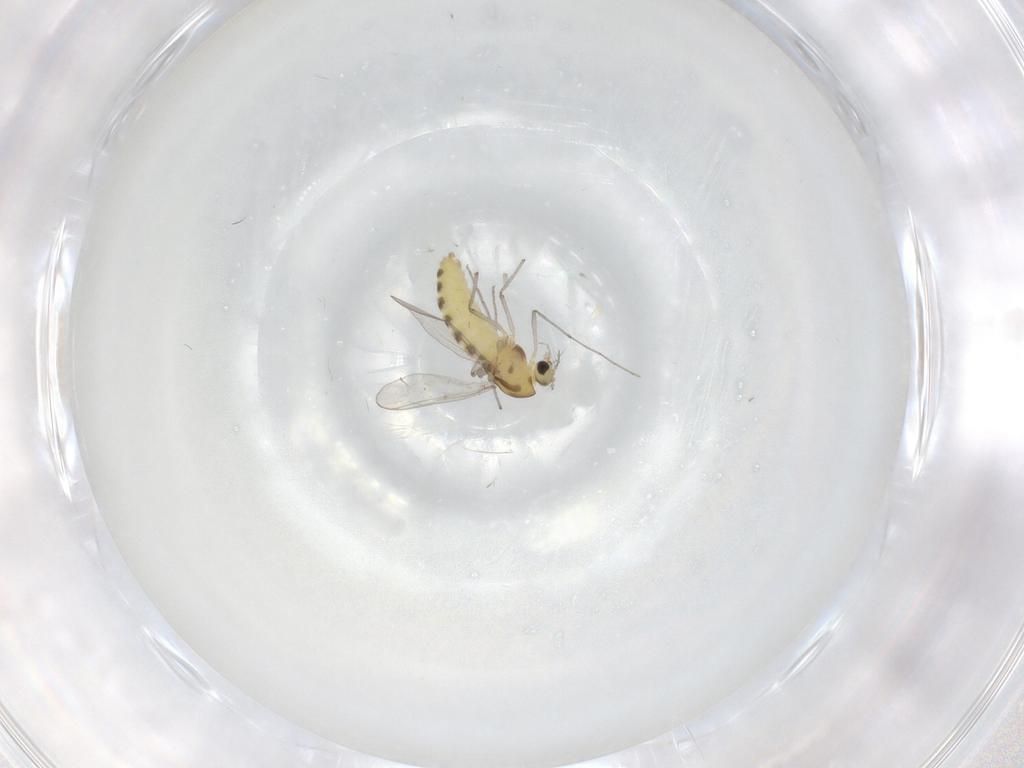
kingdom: Animalia
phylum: Arthropoda
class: Insecta
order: Diptera
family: Chironomidae
